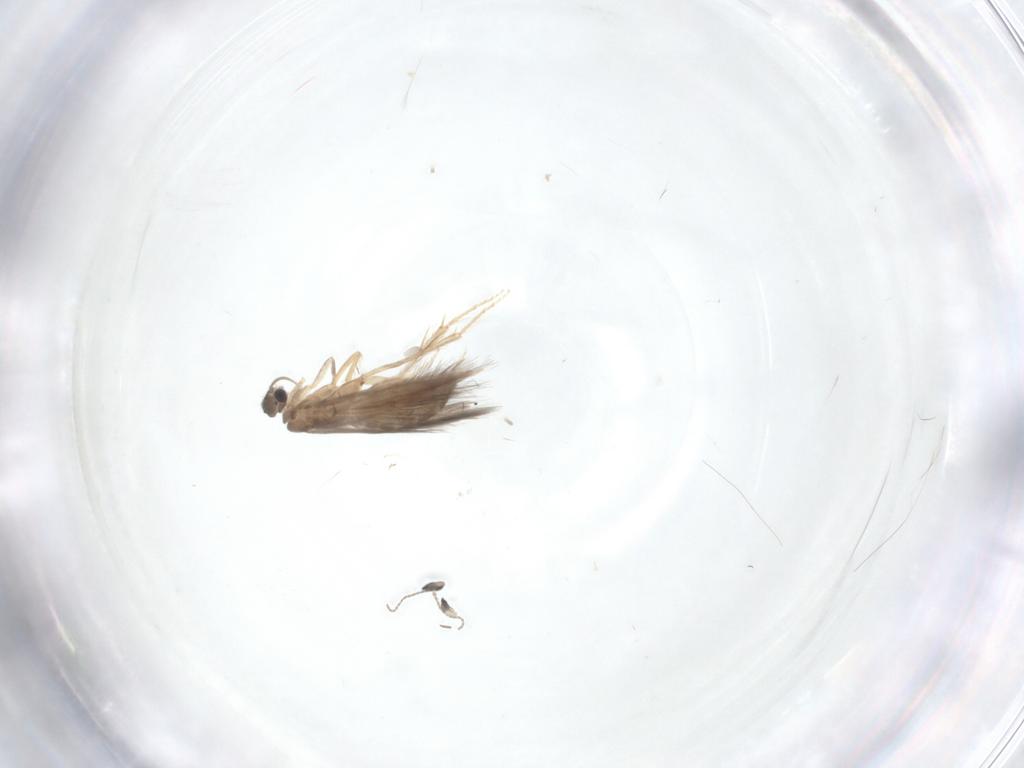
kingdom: Animalia
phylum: Arthropoda
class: Insecta
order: Trichoptera
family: Hydroptilidae
